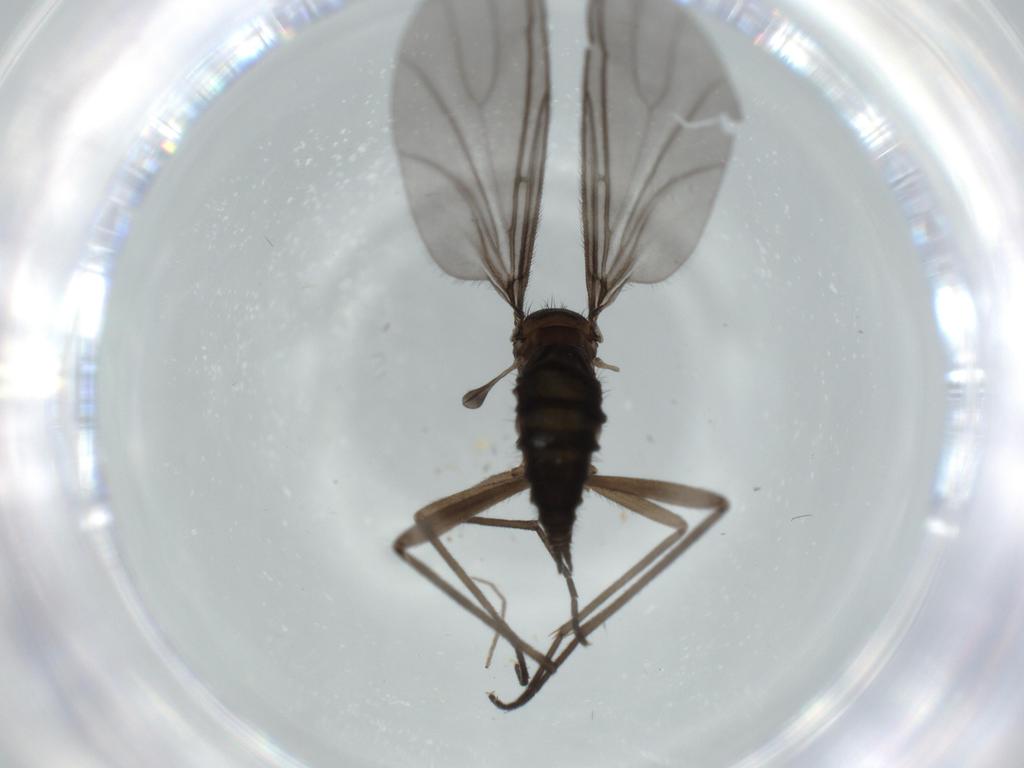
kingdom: Animalia
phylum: Arthropoda
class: Insecta
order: Diptera
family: Sciaridae
